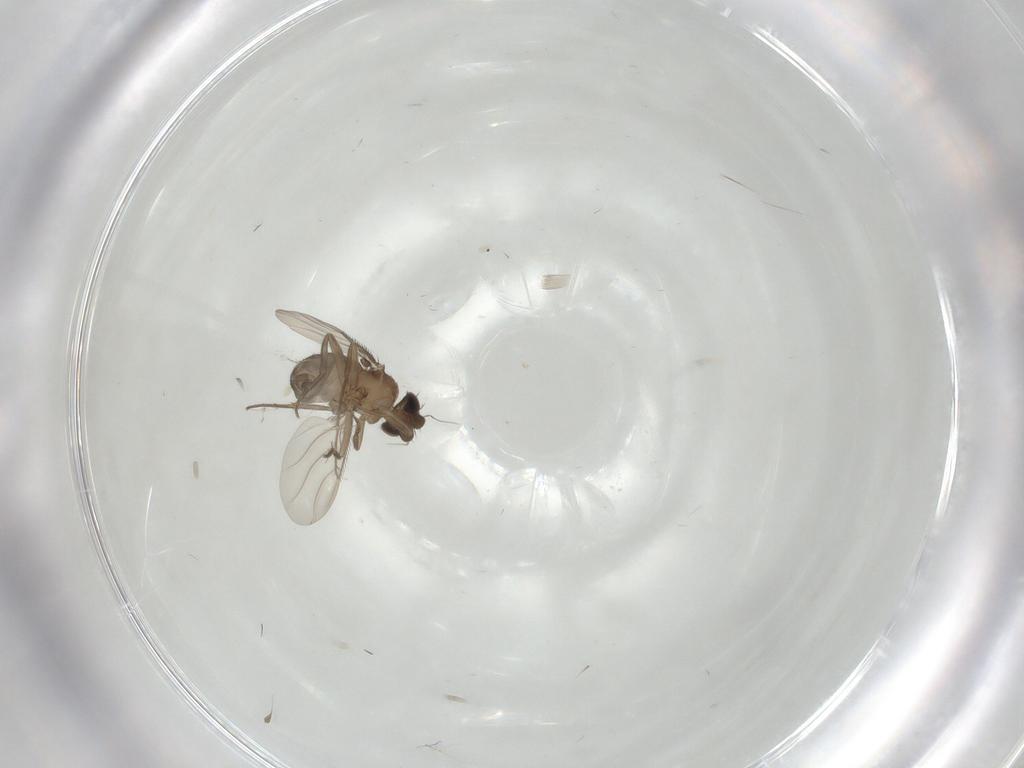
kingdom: Animalia
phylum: Arthropoda
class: Insecta
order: Diptera
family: Phoridae
